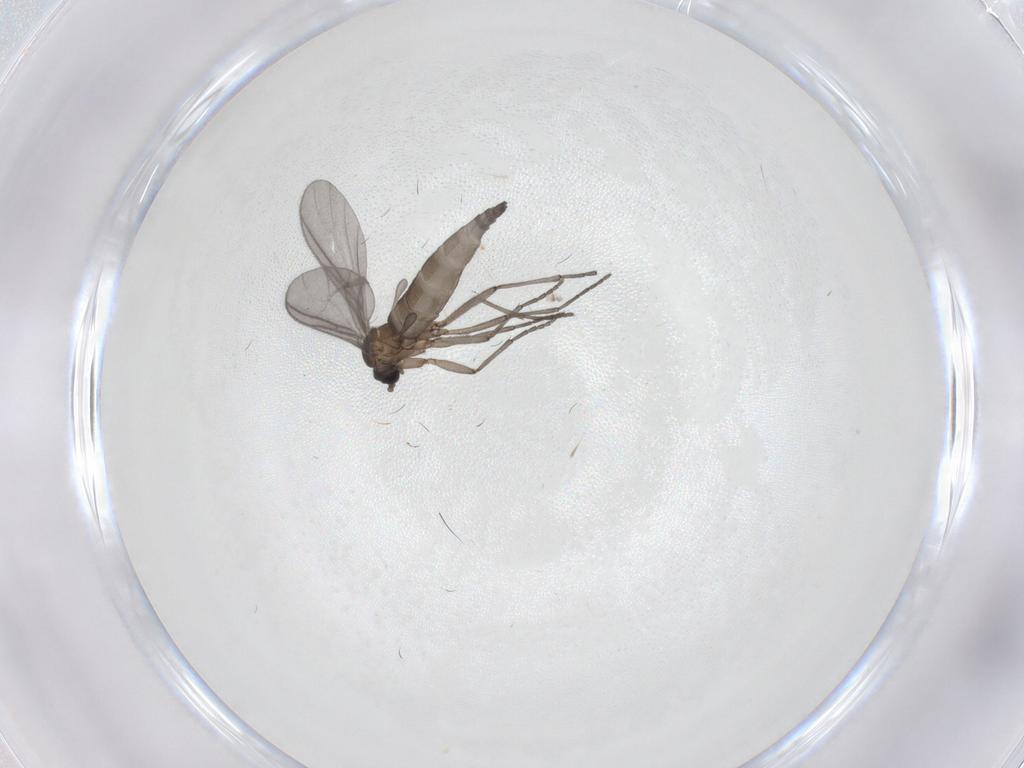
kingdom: Animalia
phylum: Arthropoda
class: Insecta
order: Diptera
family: Sciaridae
